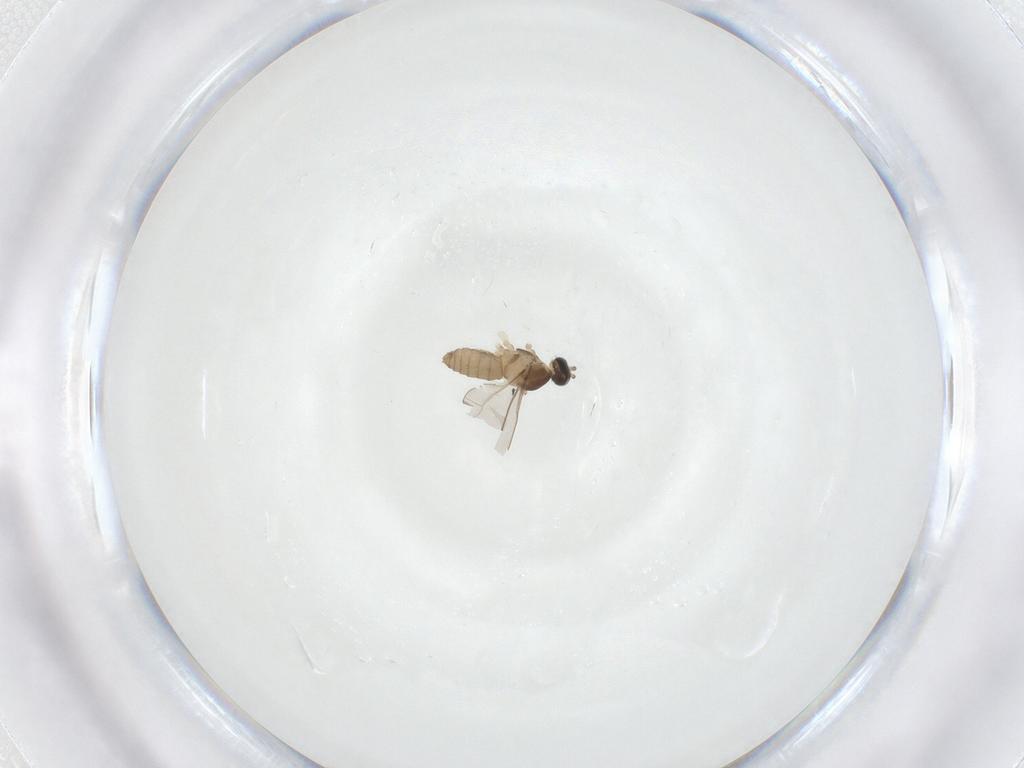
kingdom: Animalia
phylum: Arthropoda
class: Insecta
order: Diptera
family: Cecidomyiidae
